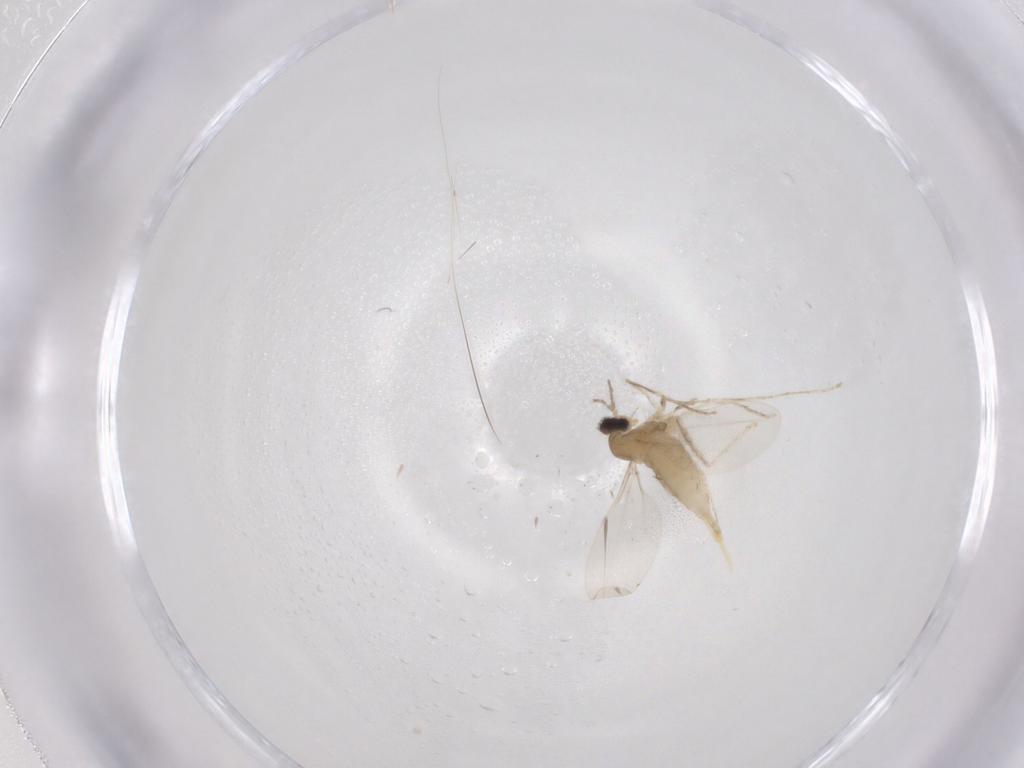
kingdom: Animalia
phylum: Arthropoda
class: Insecta
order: Diptera
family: Cecidomyiidae
